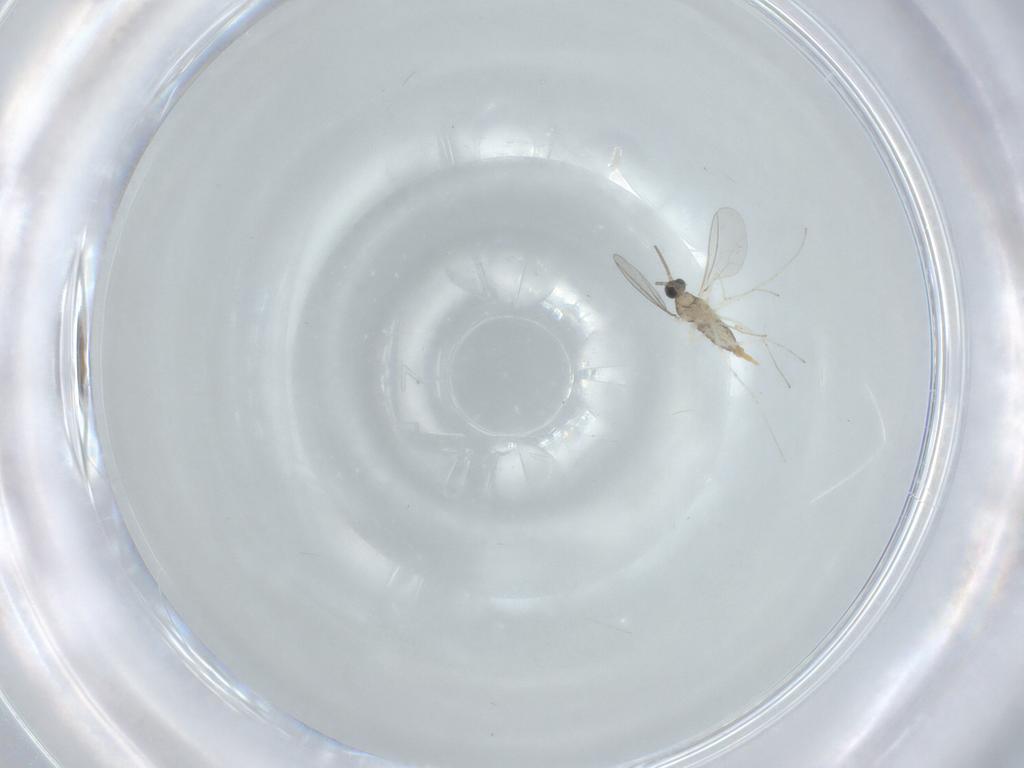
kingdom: Animalia
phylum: Arthropoda
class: Insecta
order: Diptera
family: Cecidomyiidae
